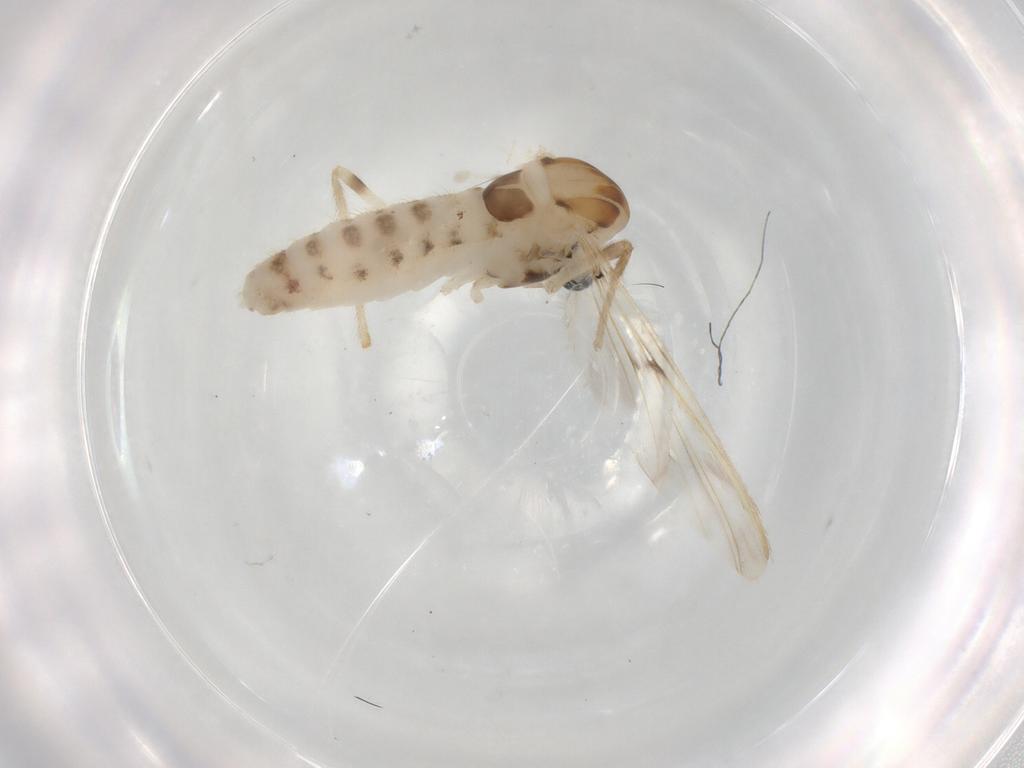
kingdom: Animalia
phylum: Arthropoda
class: Insecta
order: Diptera
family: Chironomidae
